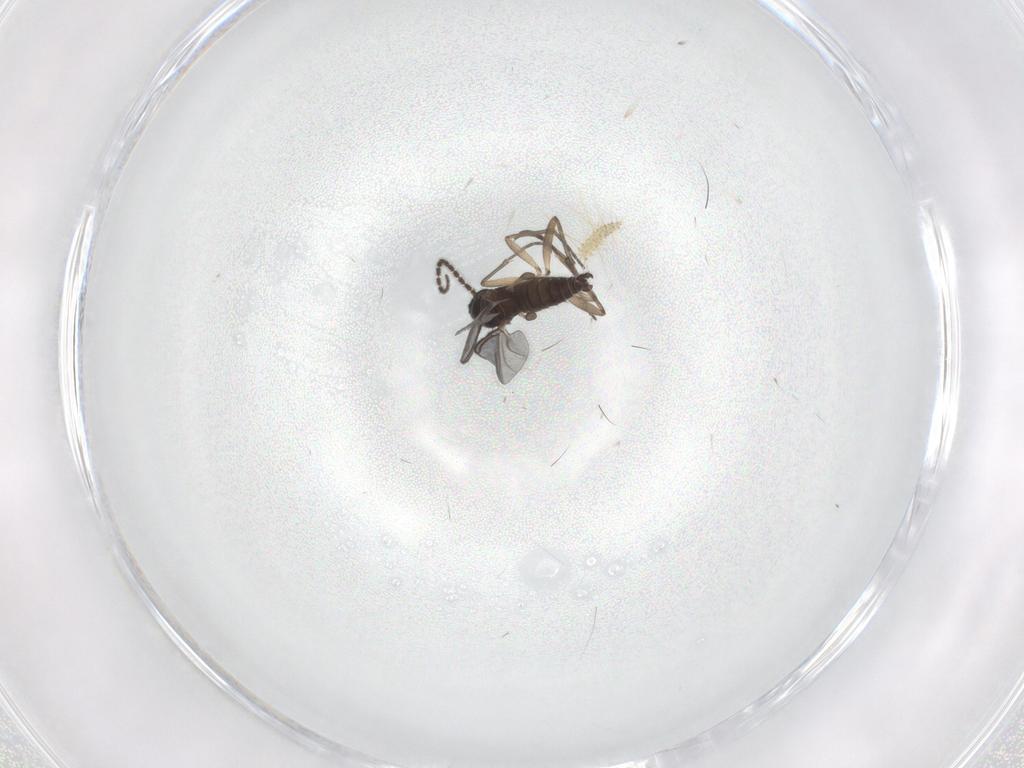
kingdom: Animalia
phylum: Arthropoda
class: Insecta
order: Diptera
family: Sciaridae
